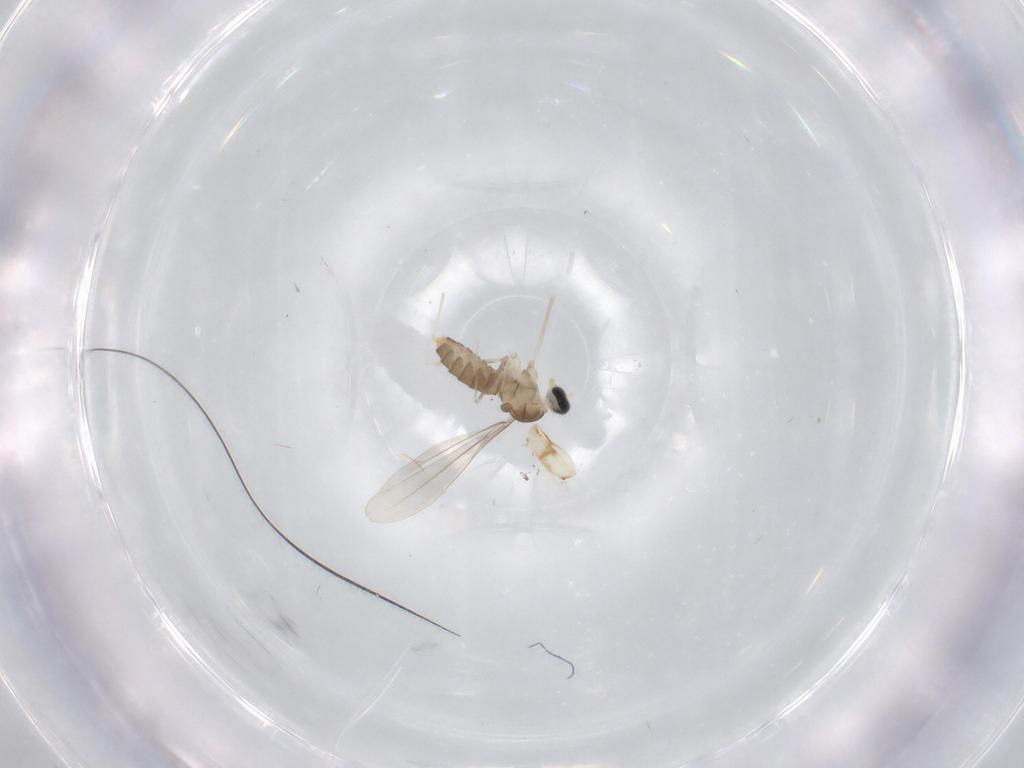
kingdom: Animalia
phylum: Arthropoda
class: Insecta
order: Diptera
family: Cecidomyiidae
